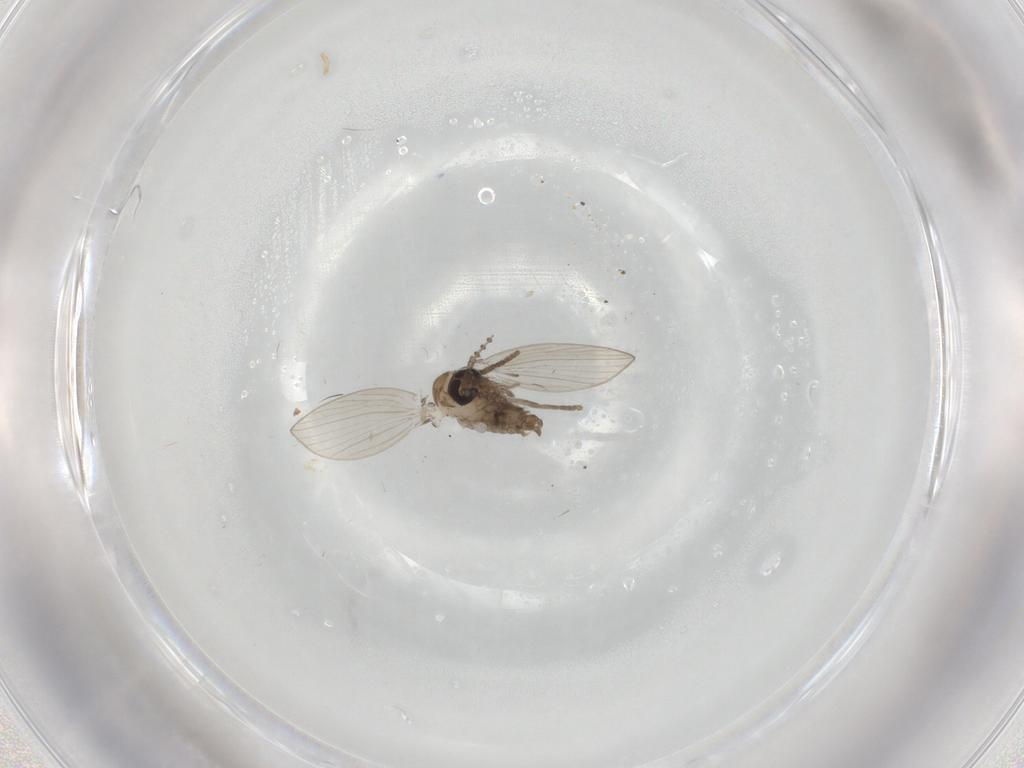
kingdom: Animalia
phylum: Arthropoda
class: Insecta
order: Diptera
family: Psychodidae
